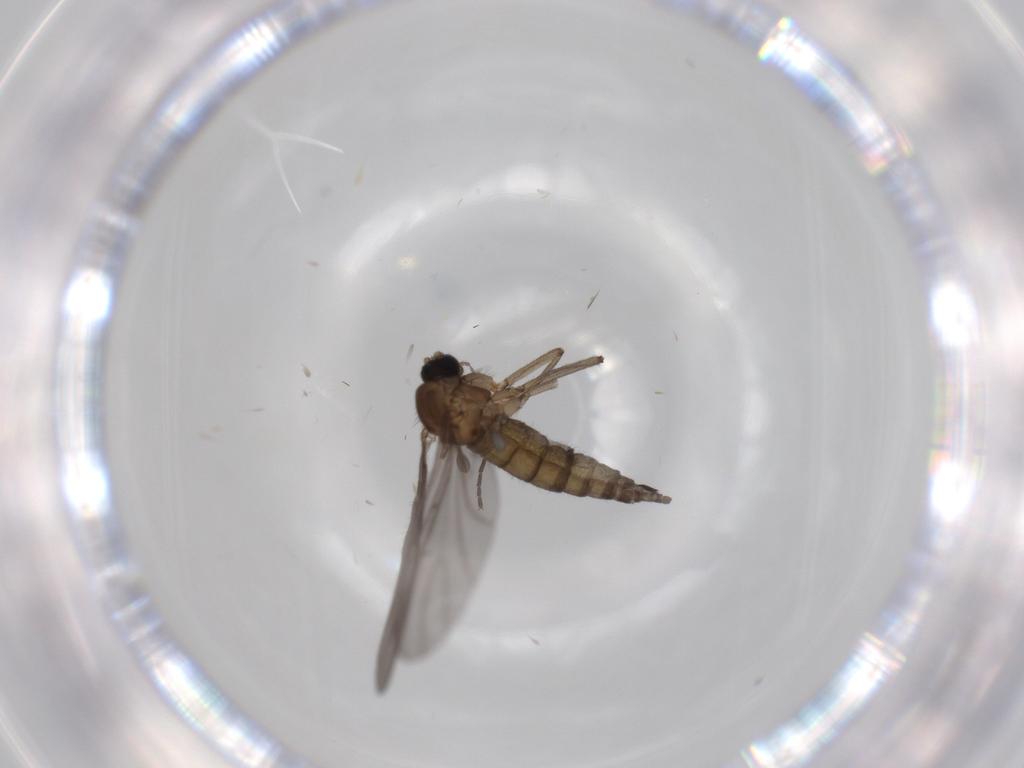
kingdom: Animalia
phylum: Arthropoda
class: Insecta
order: Diptera
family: Sciaridae
